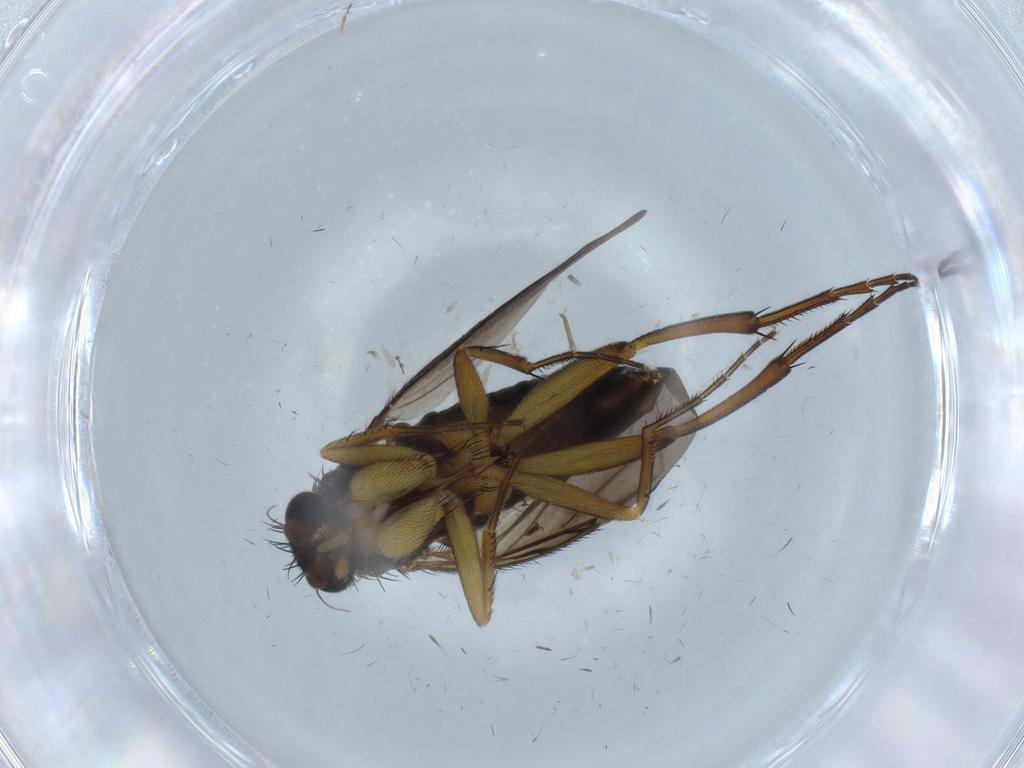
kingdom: Animalia
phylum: Arthropoda
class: Insecta
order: Diptera
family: Phoridae
